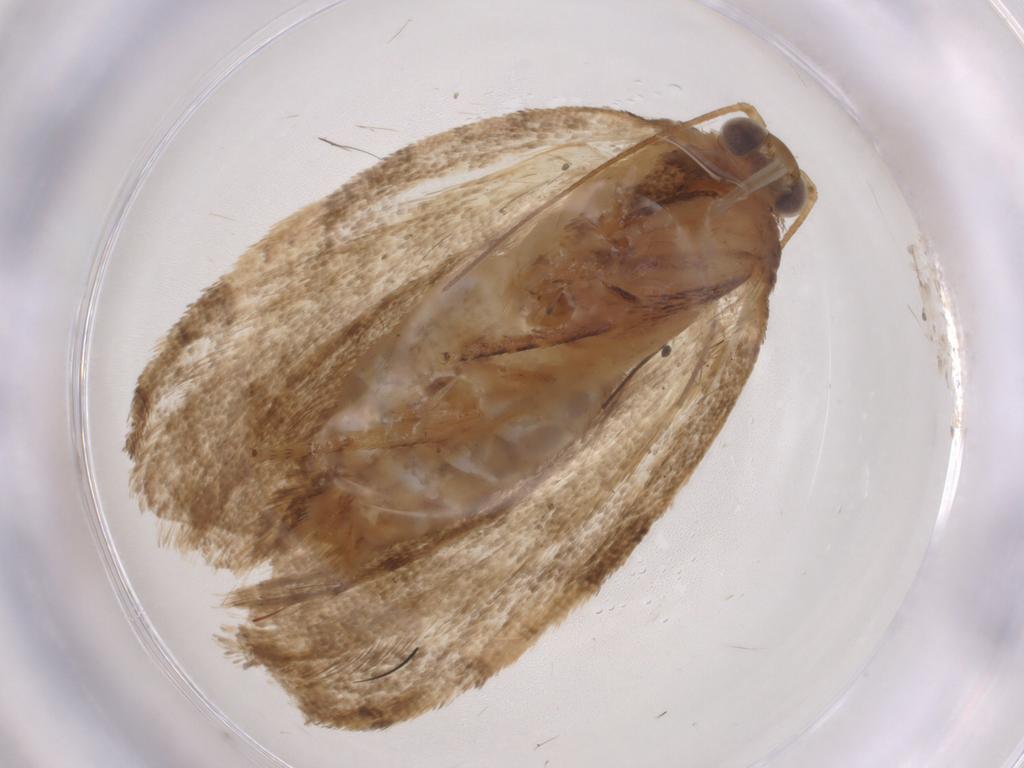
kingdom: Animalia
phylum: Arthropoda
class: Insecta
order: Lepidoptera
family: Tortricidae
